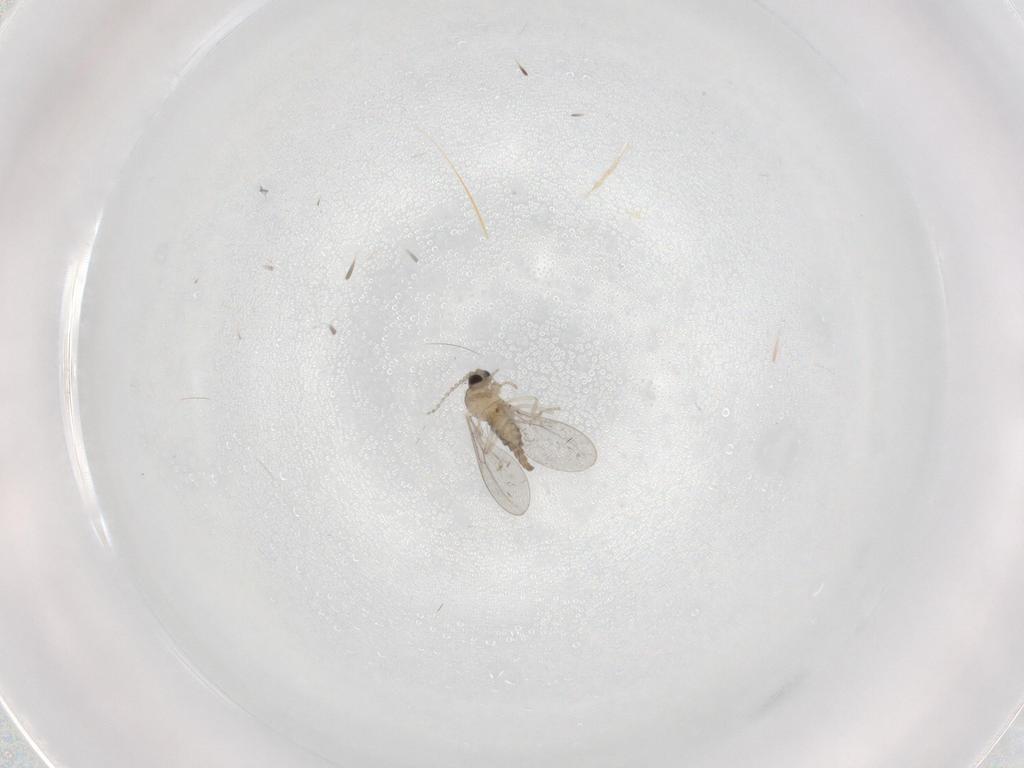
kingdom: Animalia
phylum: Arthropoda
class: Insecta
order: Diptera
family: Cecidomyiidae
